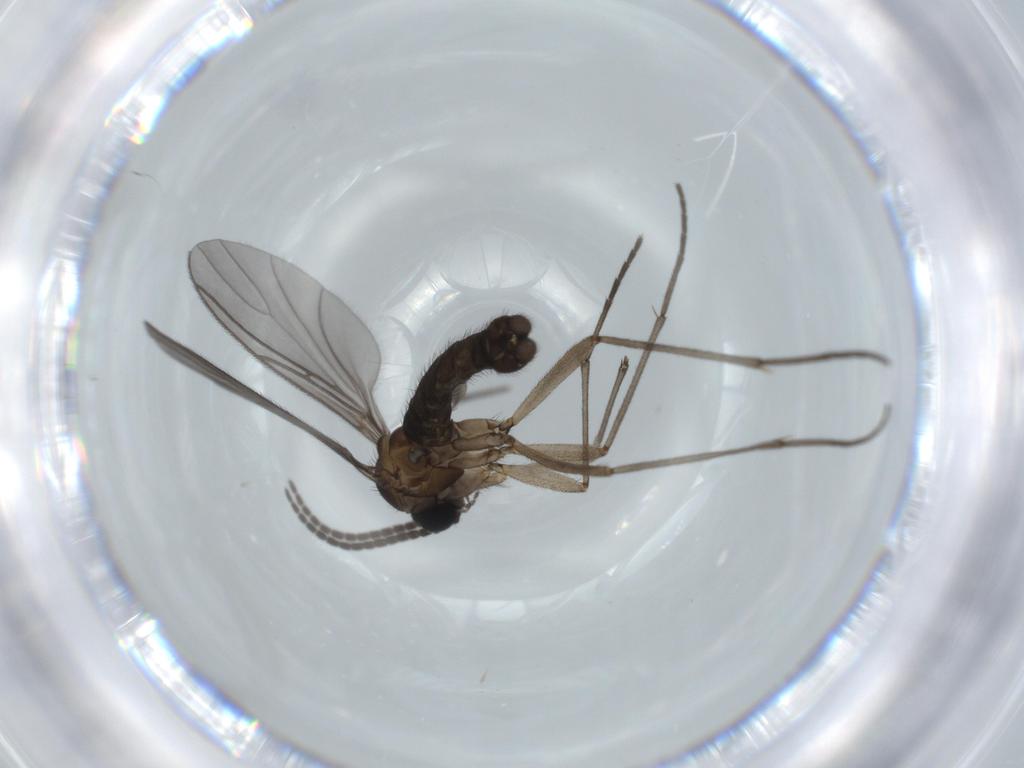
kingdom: Animalia
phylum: Arthropoda
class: Insecta
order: Diptera
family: Sciaridae
